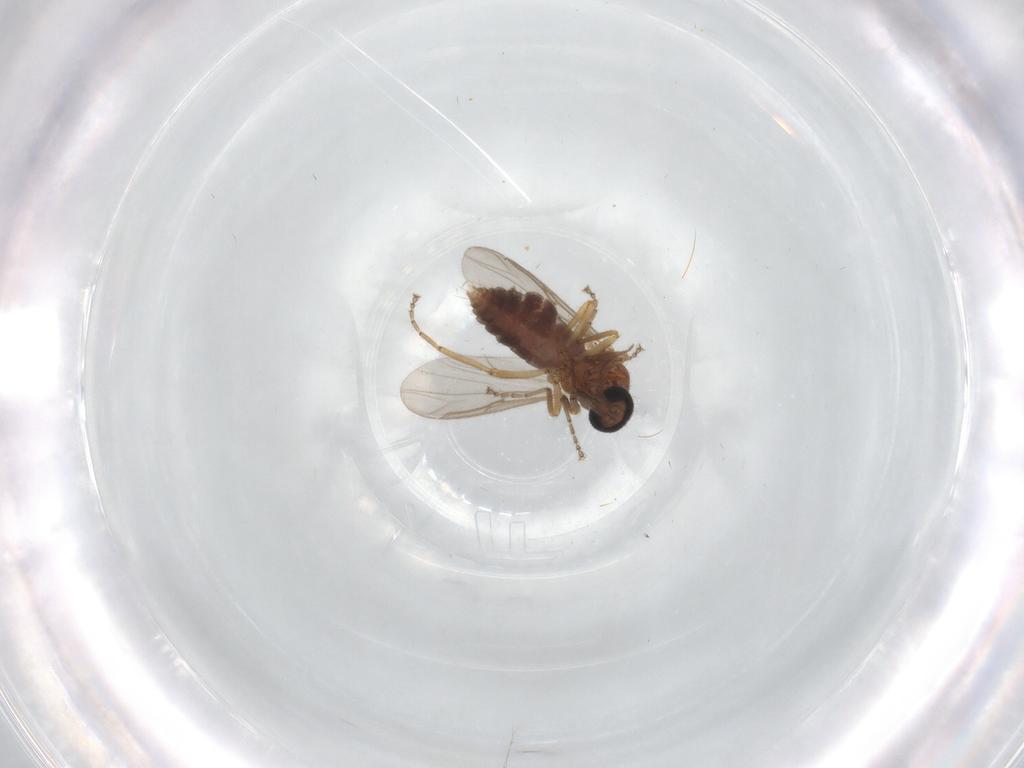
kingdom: Animalia
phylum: Arthropoda
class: Insecta
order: Diptera
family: Ceratopogonidae
